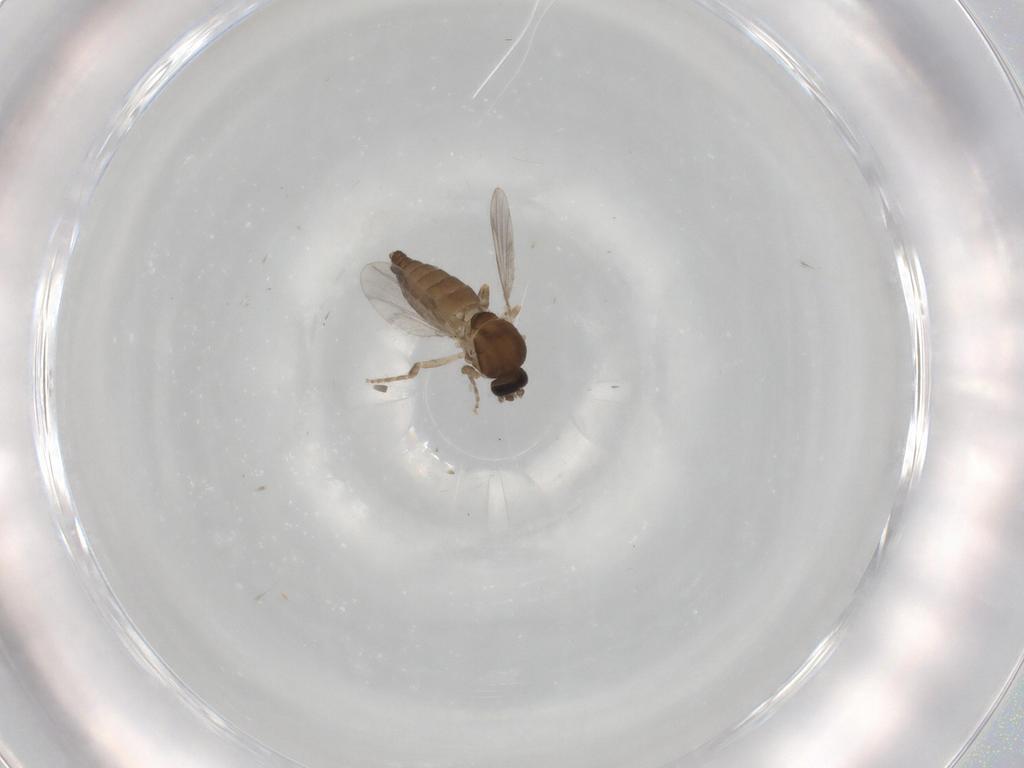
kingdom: Animalia
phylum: Arthropoda
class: Insecta
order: Diptera
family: Ceratopogonidae
